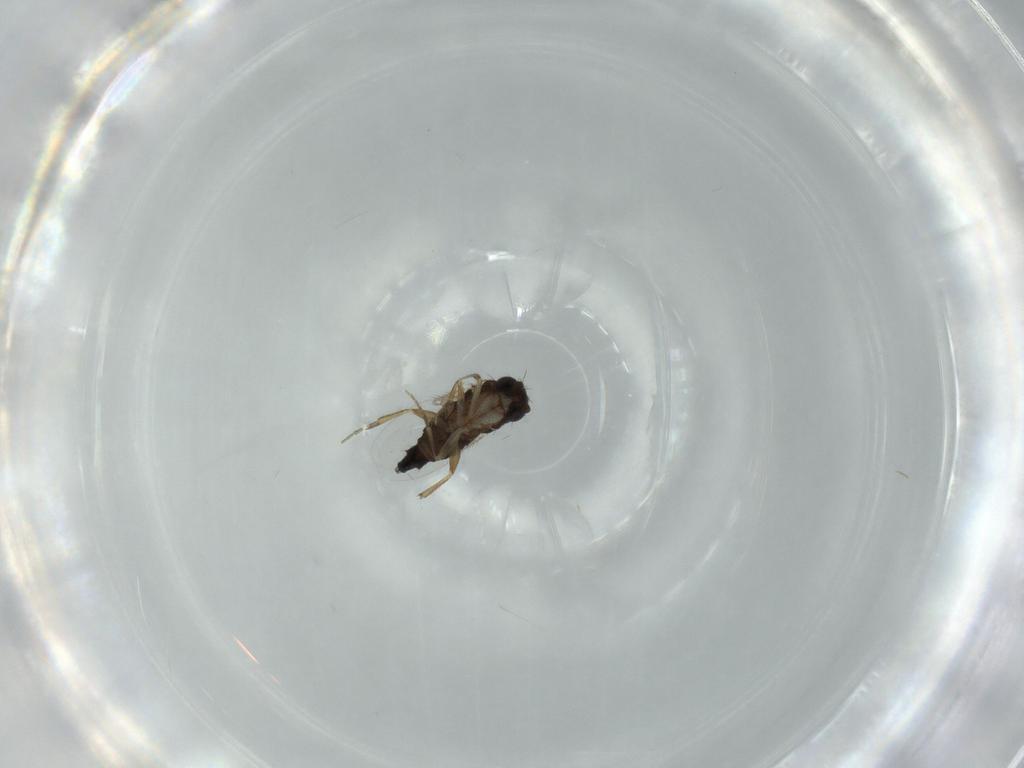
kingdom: Animalia
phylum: Arthropoda
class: Insecta
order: Diptera
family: Phoridae
